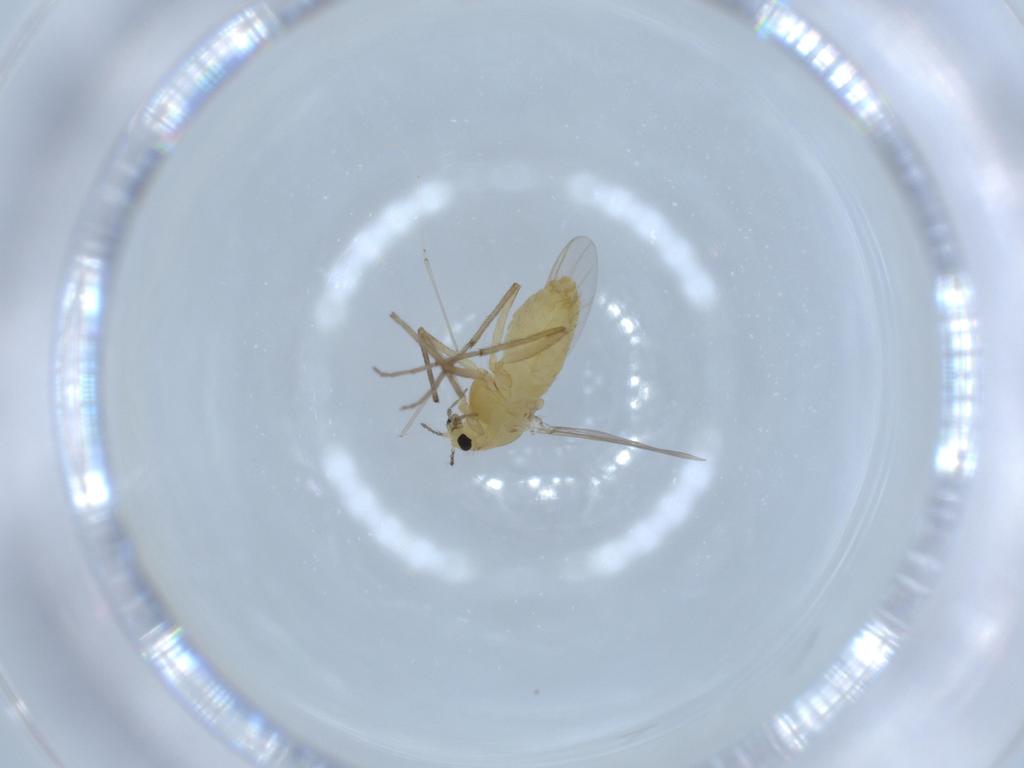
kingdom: Animalia
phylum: Arthropoda
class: Insecta
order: Diptera
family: Chironomidae
